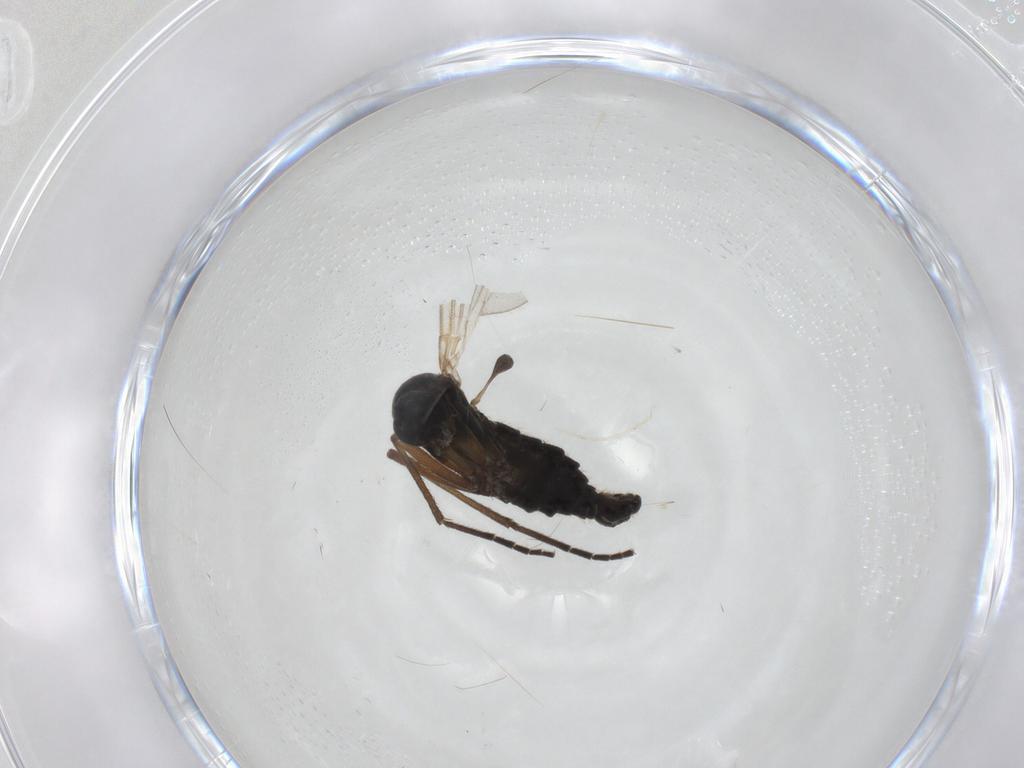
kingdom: Animalia
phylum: Arthropoda
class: Insecta
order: Diptera
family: Sciaridae
